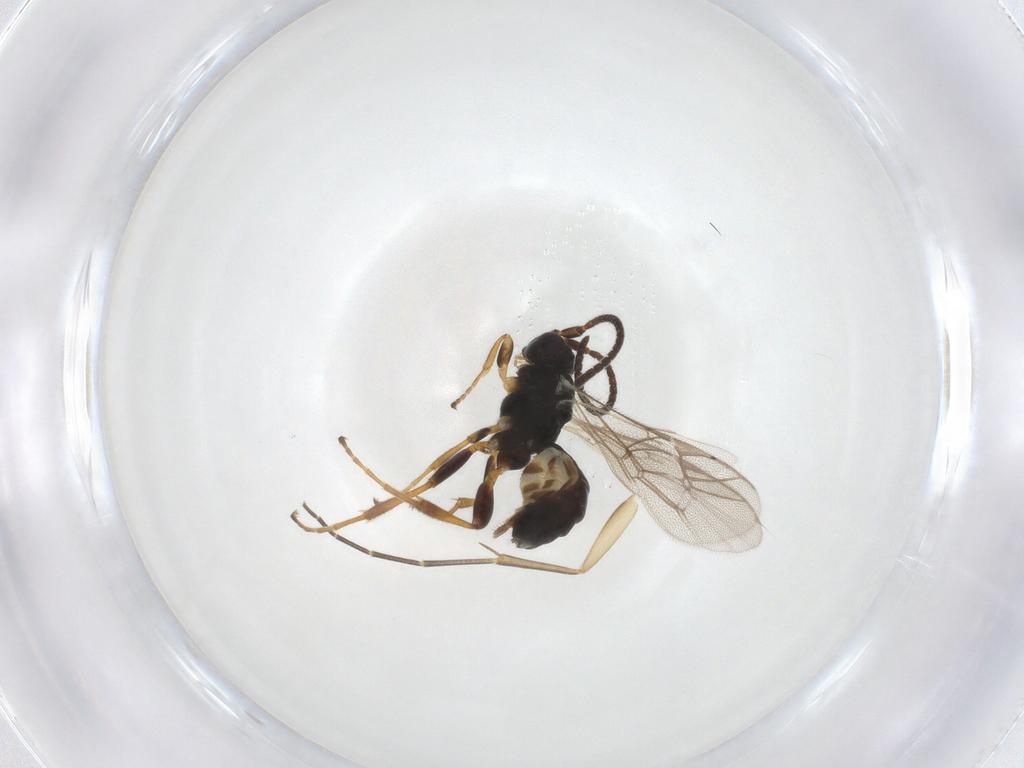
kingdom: Animalia
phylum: Arthropoda
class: Insecta
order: Hymenoptera
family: Ichneumonidae
